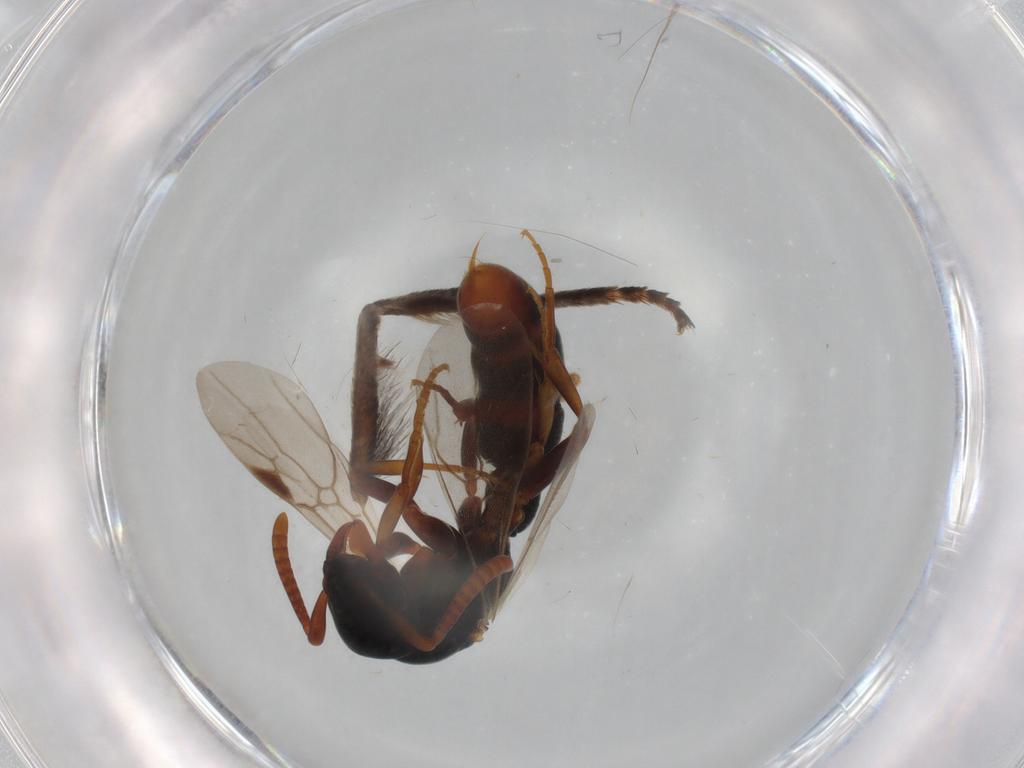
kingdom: Animalia
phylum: Arthropoda
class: Insecta
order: Hymenoptera
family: Formicidae
